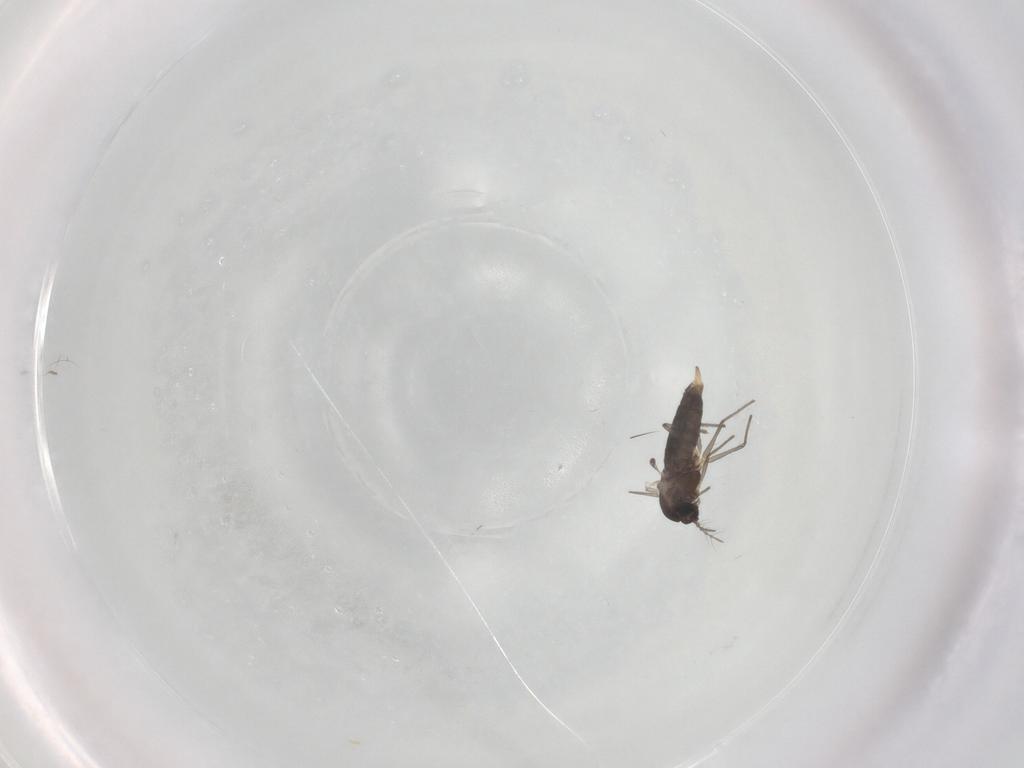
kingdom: Animalia
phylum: Arthropoda
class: Insecta
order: Diptera
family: Chironomidae
